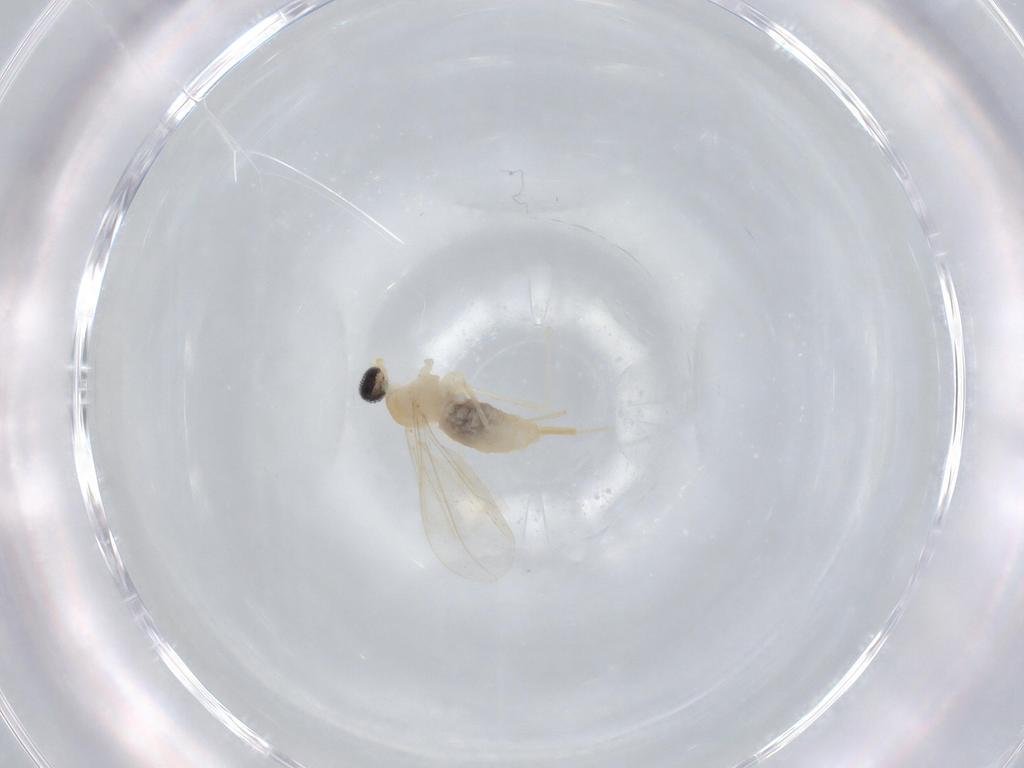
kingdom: Animalia
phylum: Arthropoda
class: Insecta
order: Diptera
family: Cecidomyiidae
